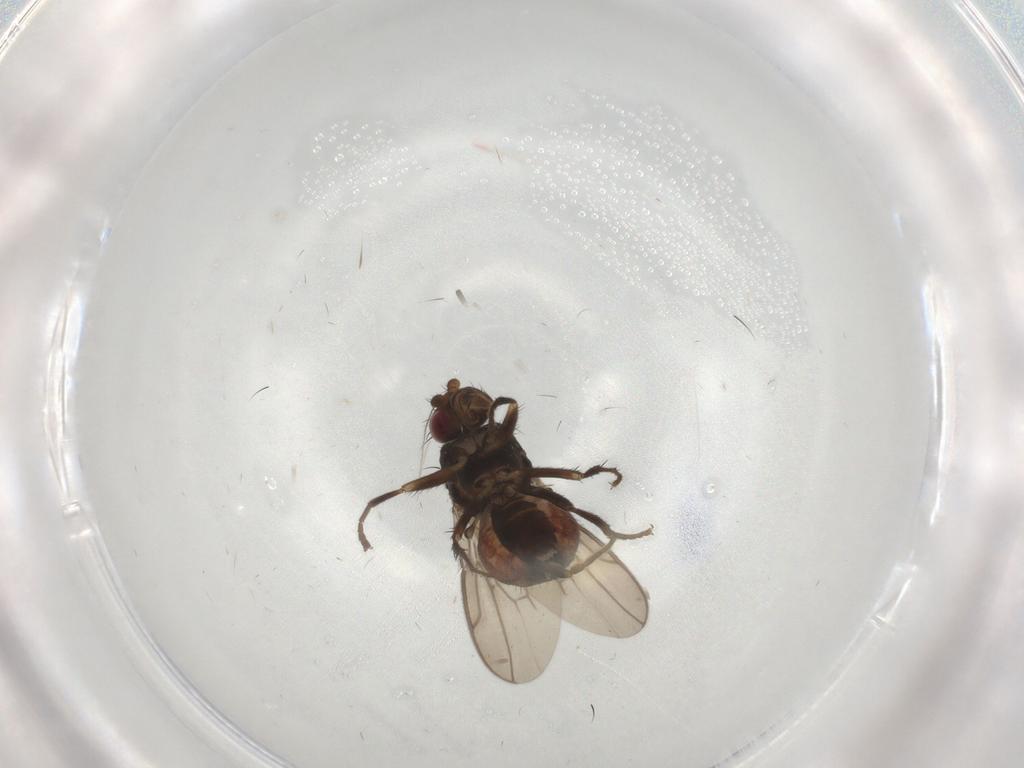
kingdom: Animalia
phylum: Arthropoda
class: Insecta
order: Diptera
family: Sphaeroceridae
